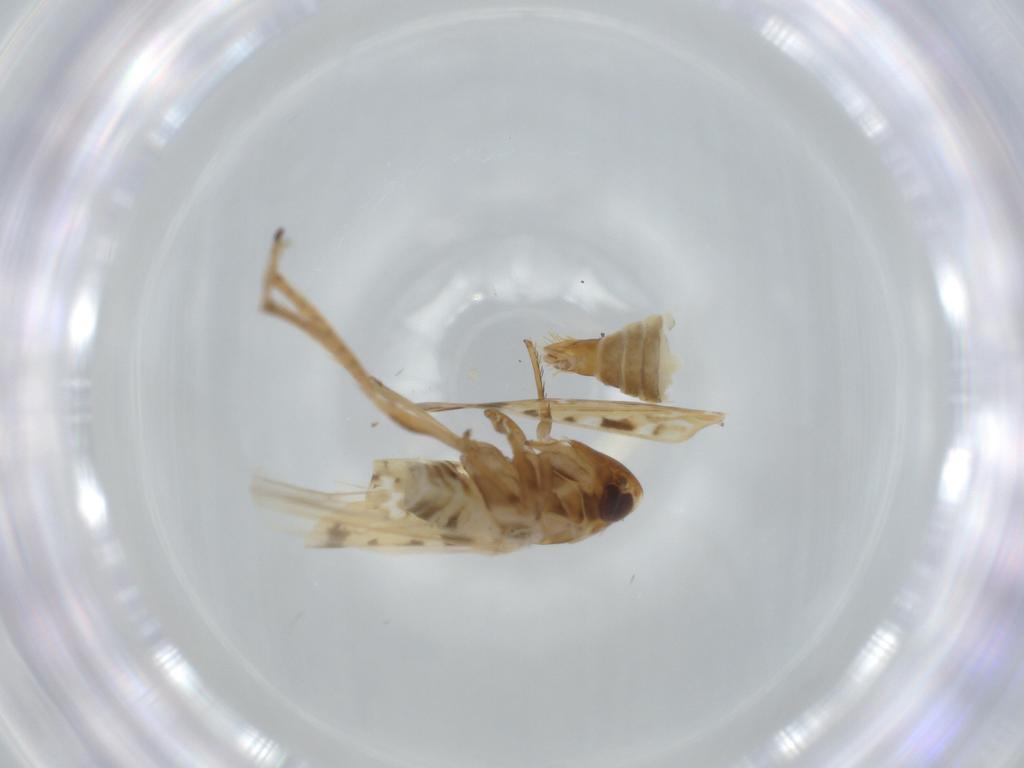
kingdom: Animalia
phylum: Arthropoda
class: Insecta
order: Hemiptera
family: Cicadellidae
